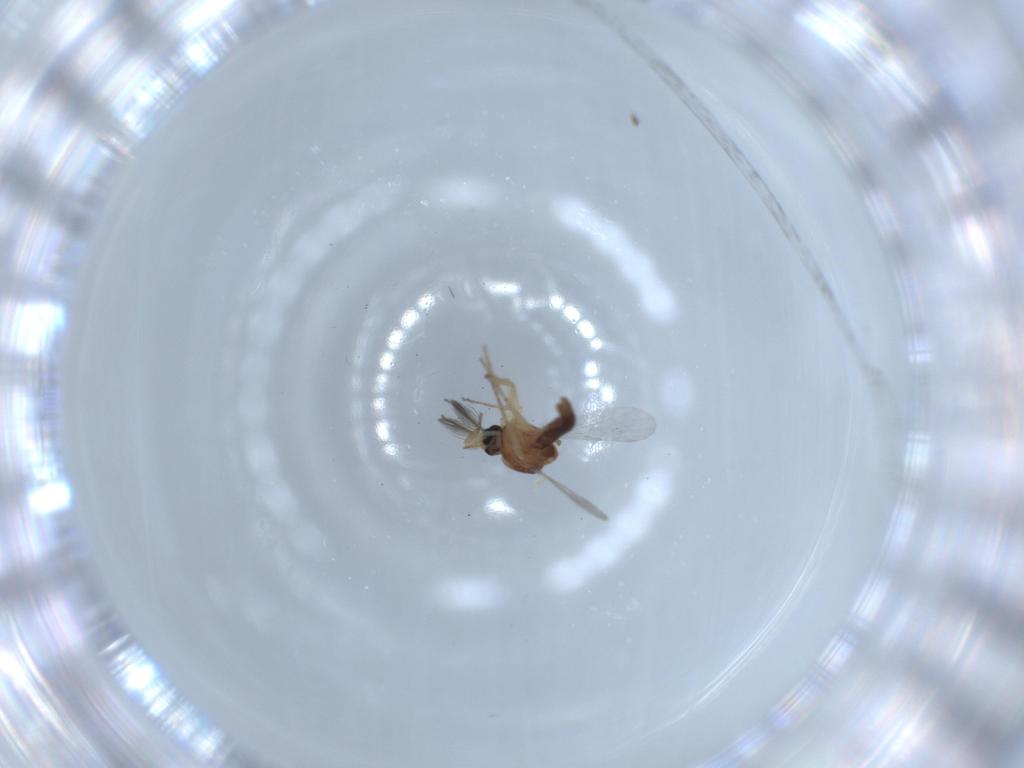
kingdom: Animalia
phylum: Arthropoda
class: Insecta
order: Diptera
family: Ceratopogonidae
